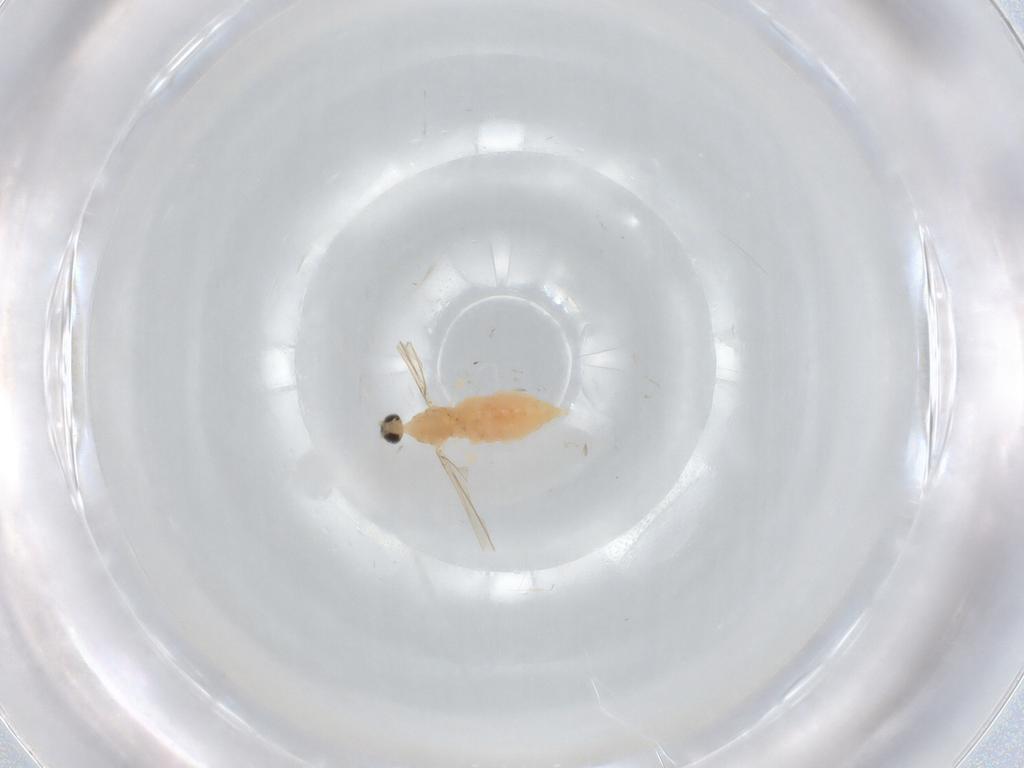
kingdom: Animalia
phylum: Arthropoda
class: Insecta
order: Diptera
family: Cecidomyiidae
